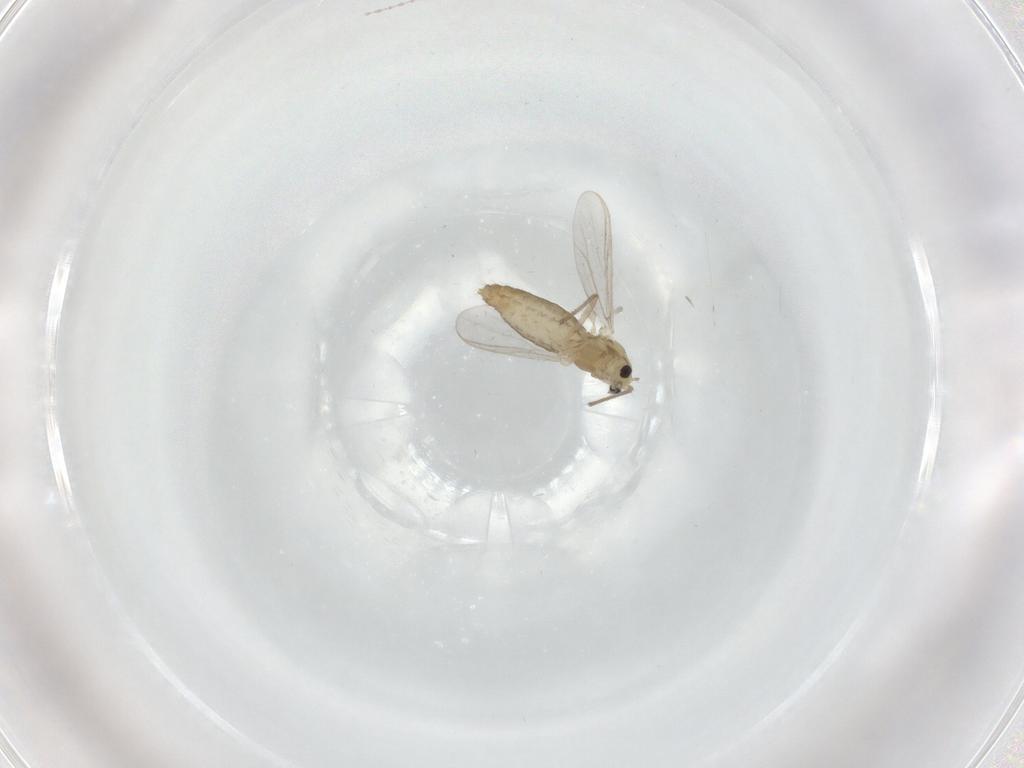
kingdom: Animalia
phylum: Arthropoda
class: Insecta
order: Diptera
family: Chironomidae
